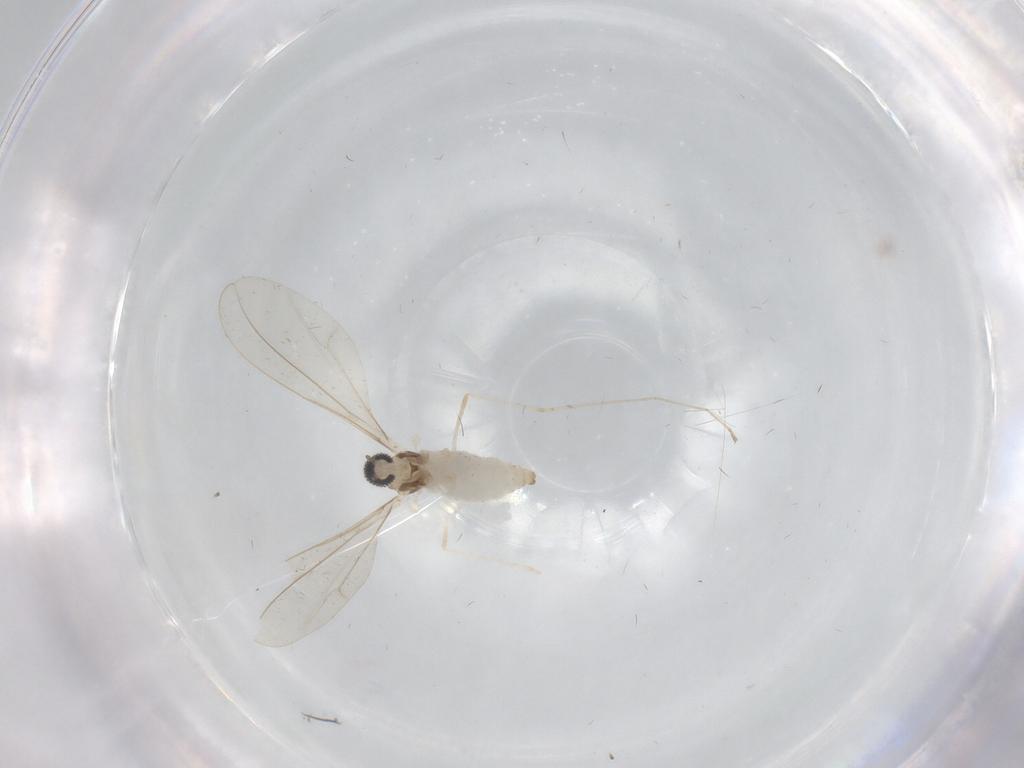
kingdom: Animalia
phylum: Arthropoda
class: Insecta
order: Diptera
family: Cecidomyiidae
